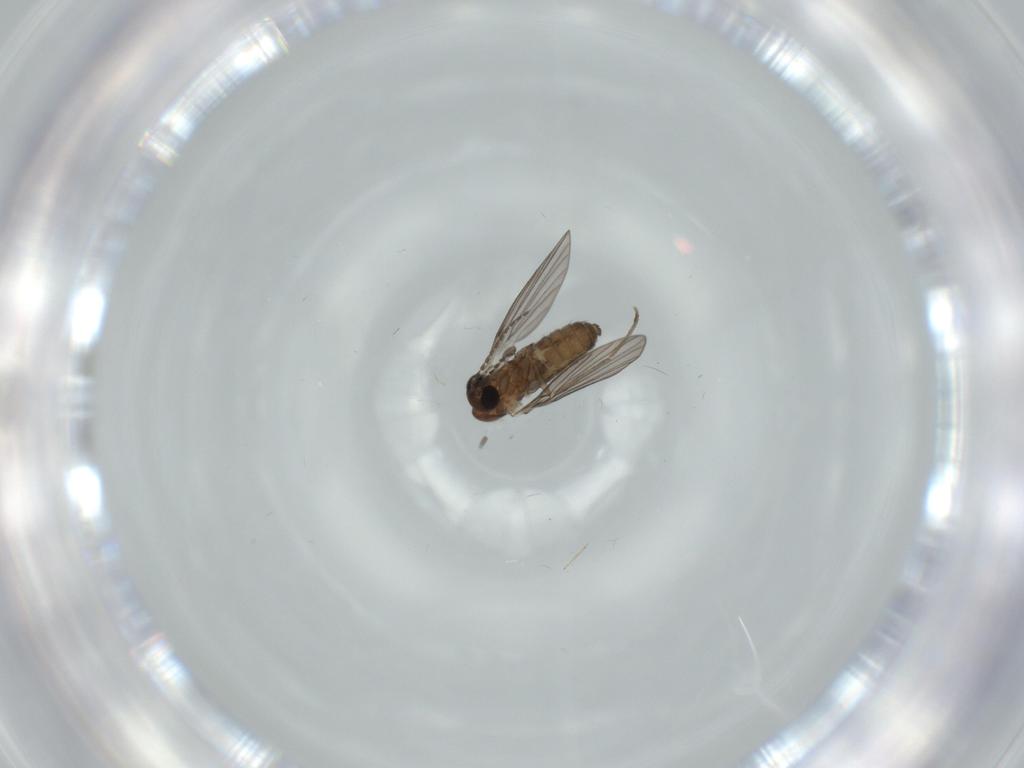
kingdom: Animalia
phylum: Arthropoda
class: Insecta
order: Diptera
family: Psychodidae
